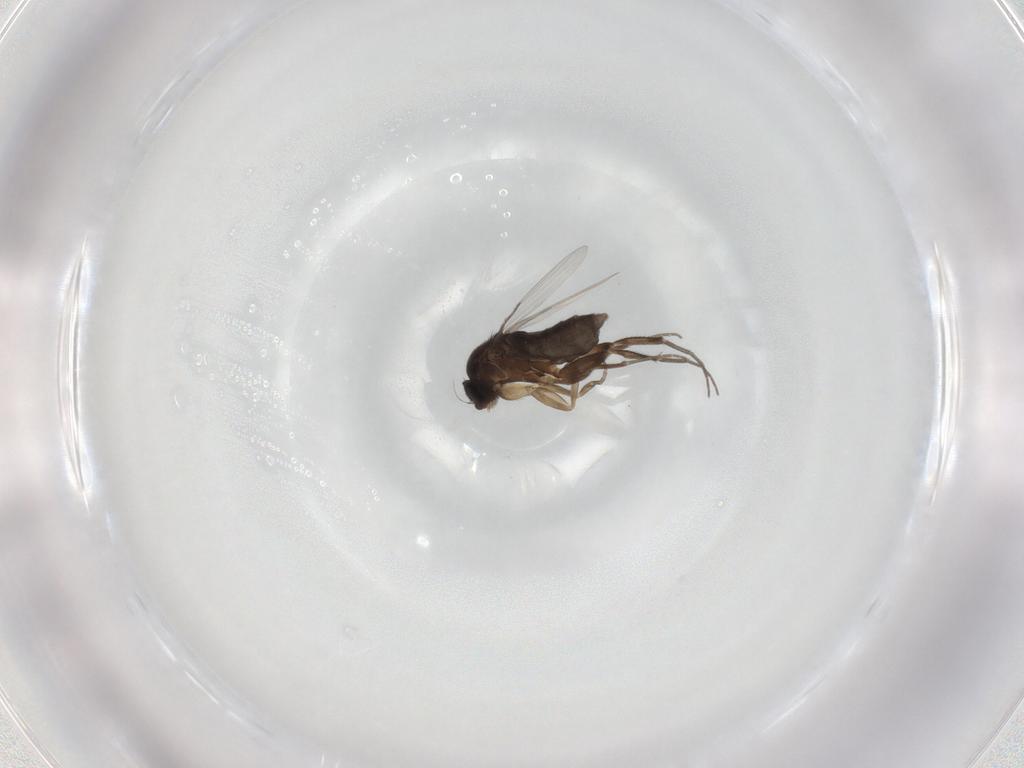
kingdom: Animalia
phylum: Arthropoda
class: Insecta
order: Diptera
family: Phoridae
